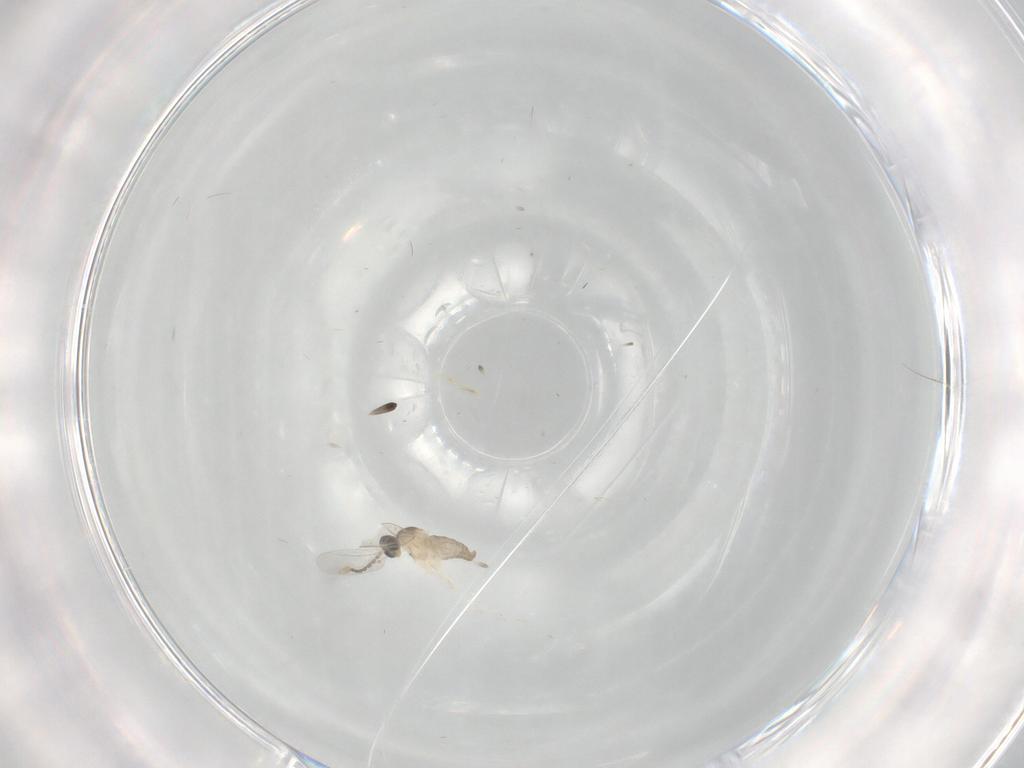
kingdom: Animalia
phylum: Arthropoda
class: Insecta
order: Diptera
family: Cecidomyiidae
